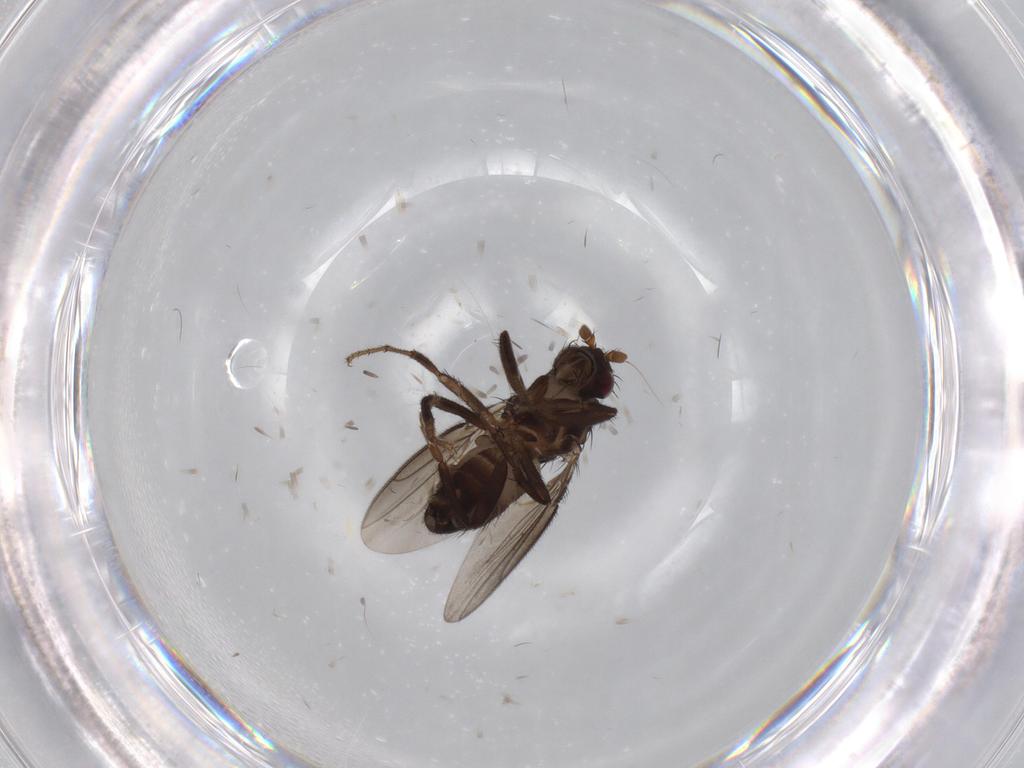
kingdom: Animalia
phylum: Arthropoda
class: Insecta
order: Diptera
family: Sphaeroceridae
